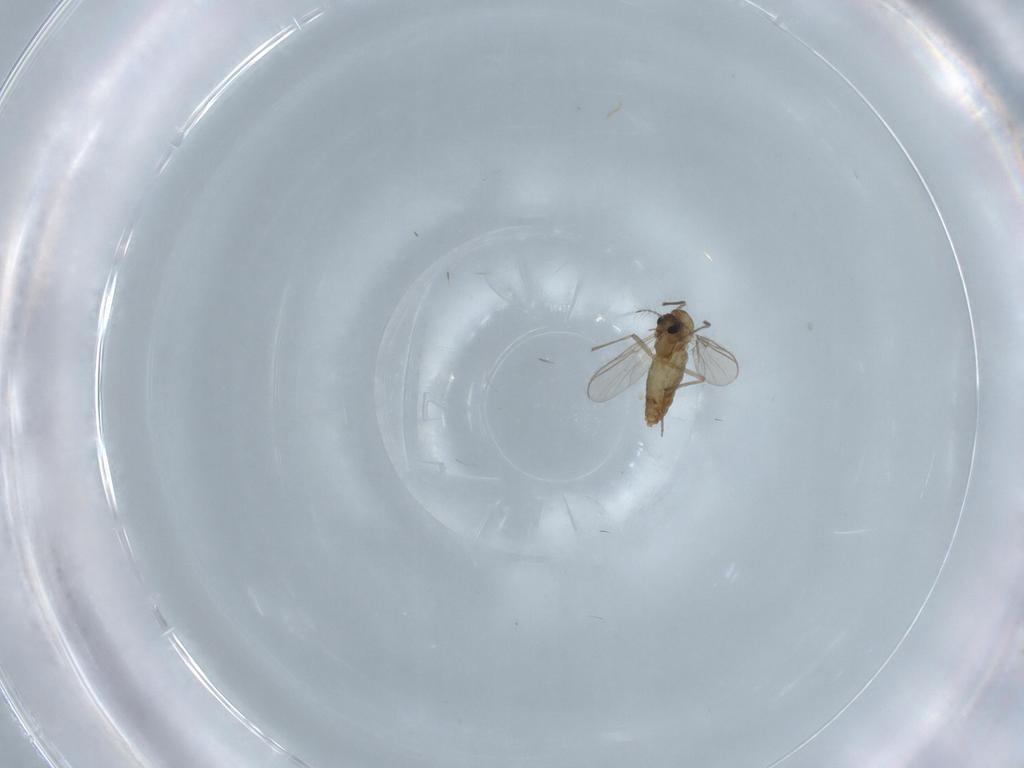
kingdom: Animalia
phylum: Arthropoda
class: Insecta
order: Diptera
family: Chironomidae
